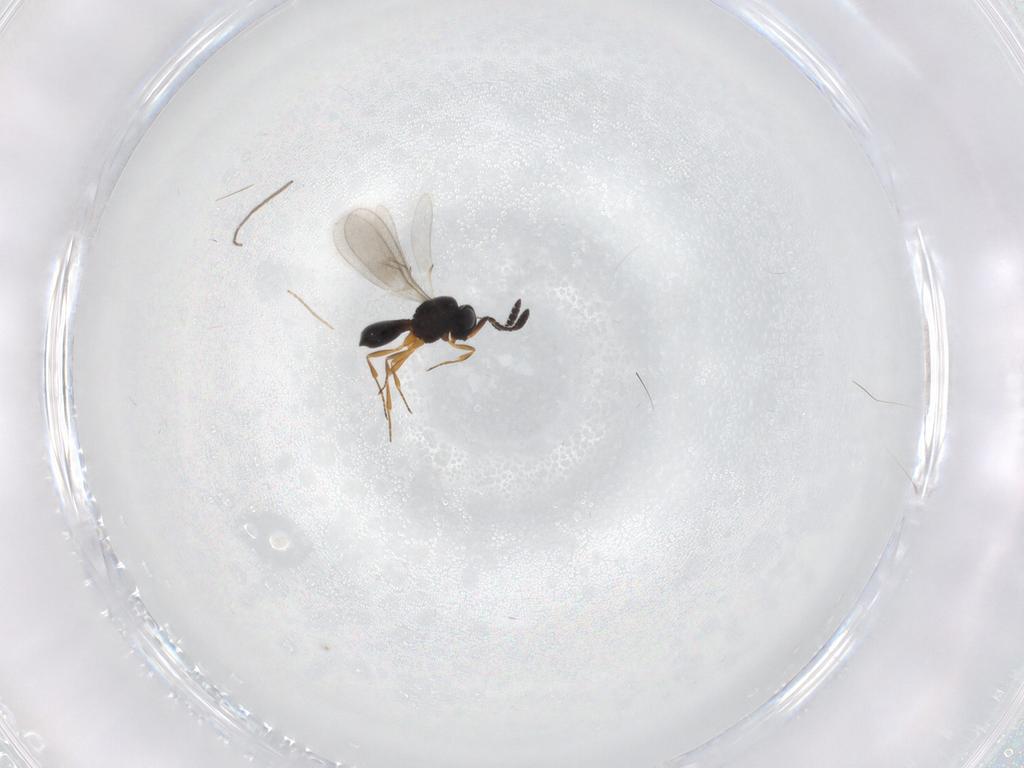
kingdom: Animalia
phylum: Arthropoda
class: Insecta
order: Hymenoptera
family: Scelionidae
